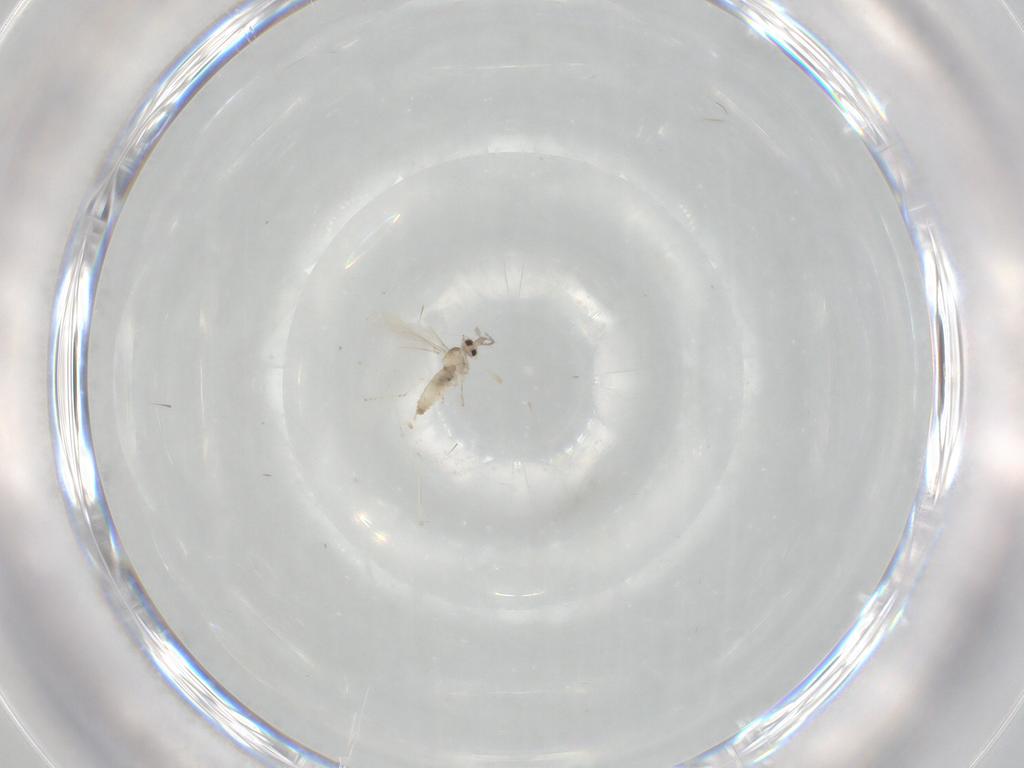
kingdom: Animalia
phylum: Arthropoda
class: Insecta
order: Diptera
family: Cecidomyiidae
